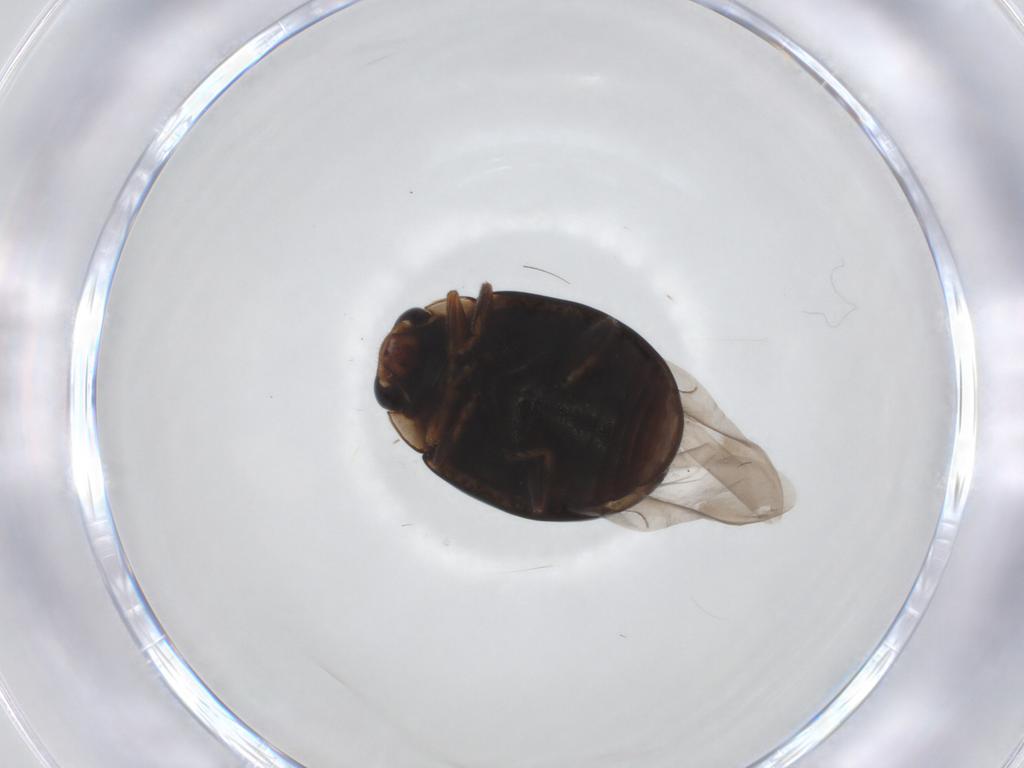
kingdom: Animalia
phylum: Arthropoda
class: Insecta
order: Coleoptera
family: Coccinellidae
